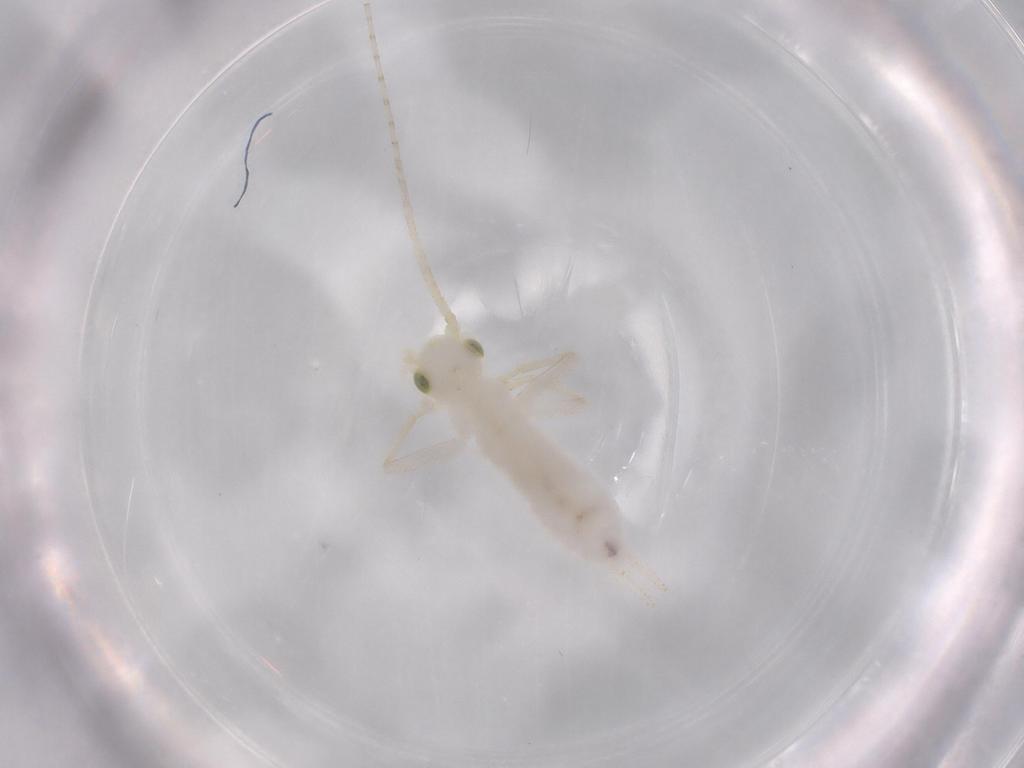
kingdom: Animalia
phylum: Arthropoda
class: Insecta
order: Orthoptera
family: Trigonidiidae
